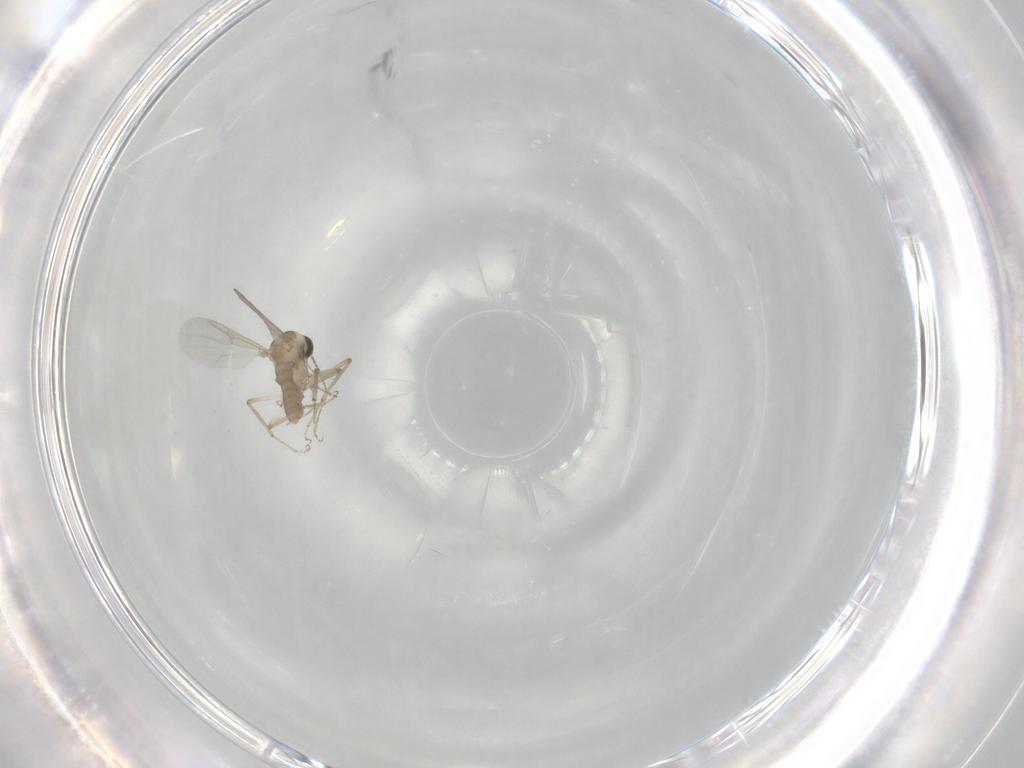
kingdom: Animalia
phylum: Arthropoda
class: Insecta
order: Diptera
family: Ceratopogonidae
